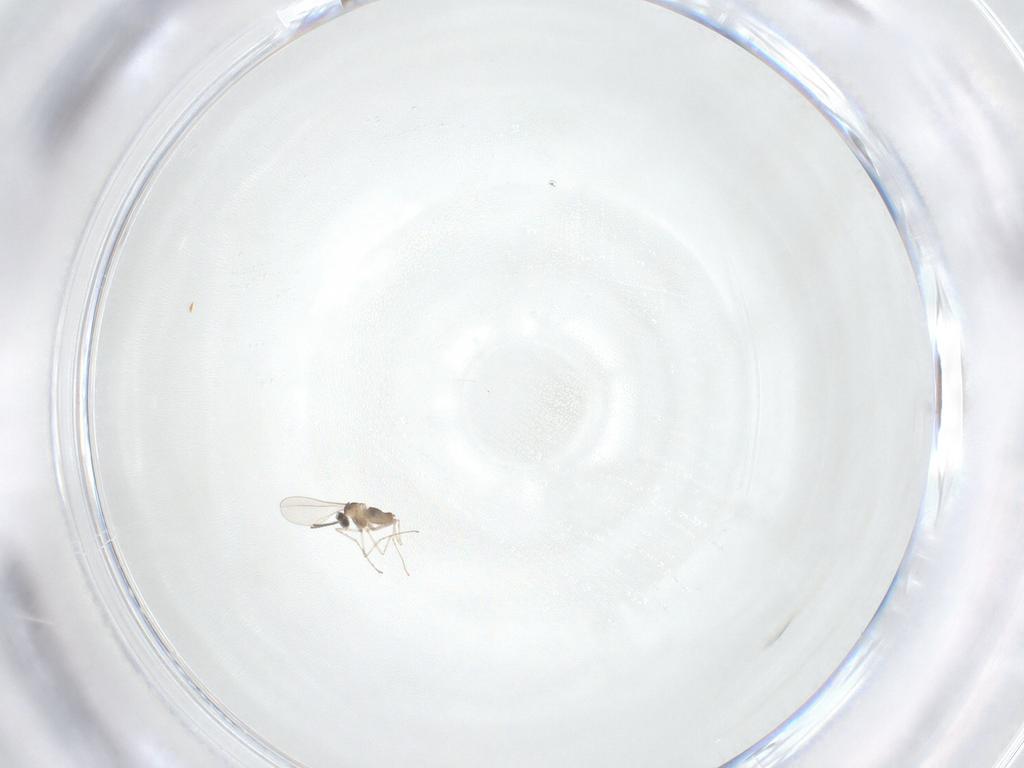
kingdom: Animalia
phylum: Arthropoda
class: Insecta
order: Diptera
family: Cecidomyiidae
